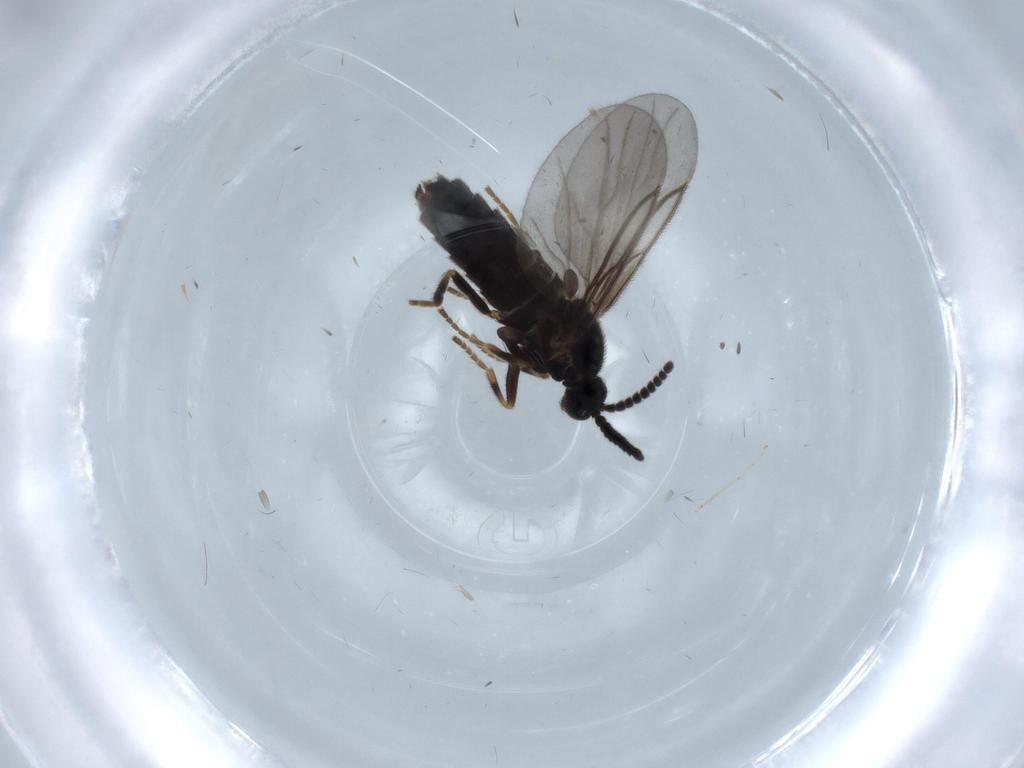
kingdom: Animalia
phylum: Arthropoda
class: Insecta
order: Diptera
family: Scatopsidae
